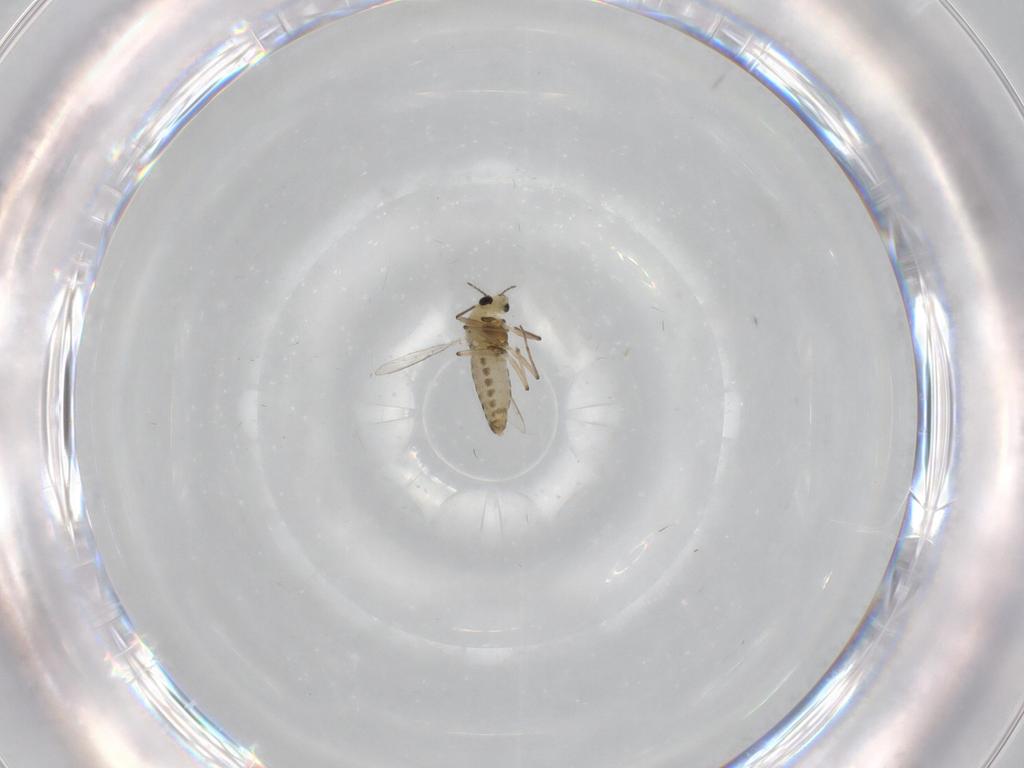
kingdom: Animalia
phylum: Arthropoda
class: Insecta
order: Diptera
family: Chironomidae
